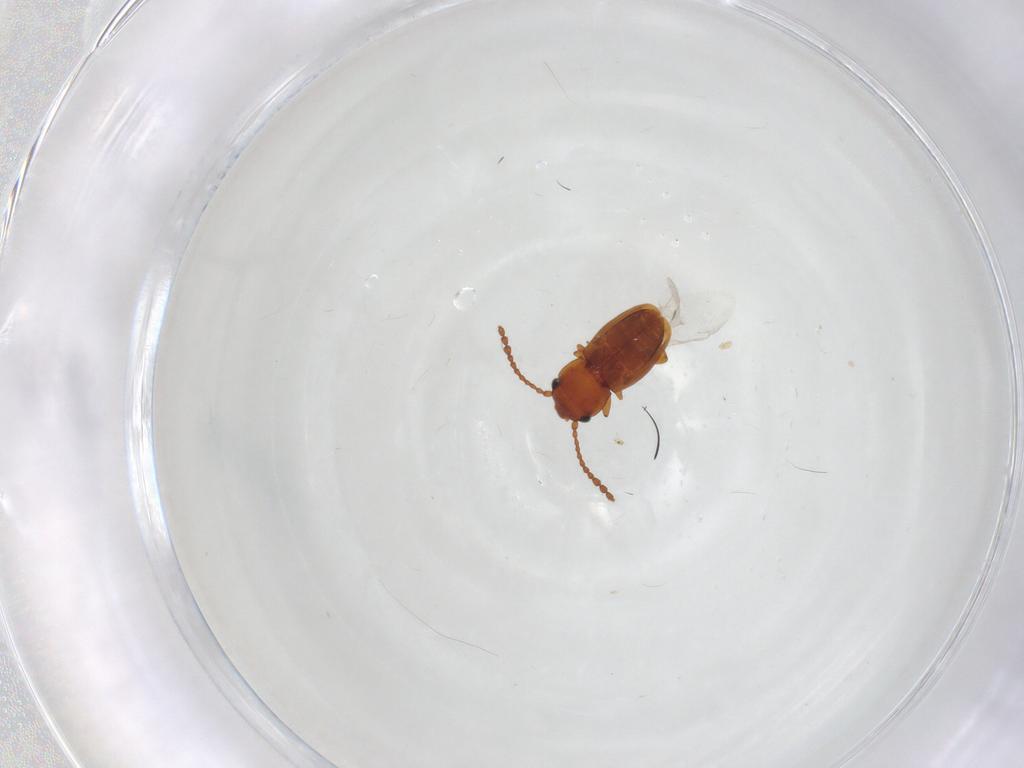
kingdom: Animalia
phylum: Arthropoda
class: Insecta
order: Coleoptera
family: Laemophloeidae
